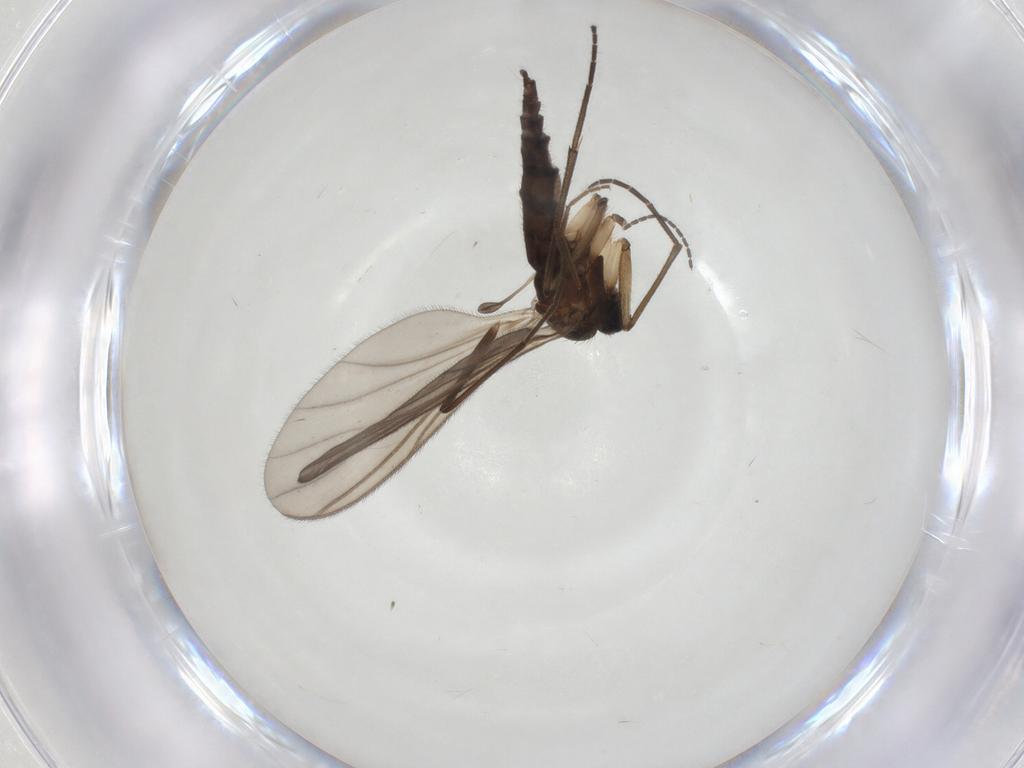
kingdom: Animalia
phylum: Arthropoda
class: Insecta
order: Diptera
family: Sciaridae
